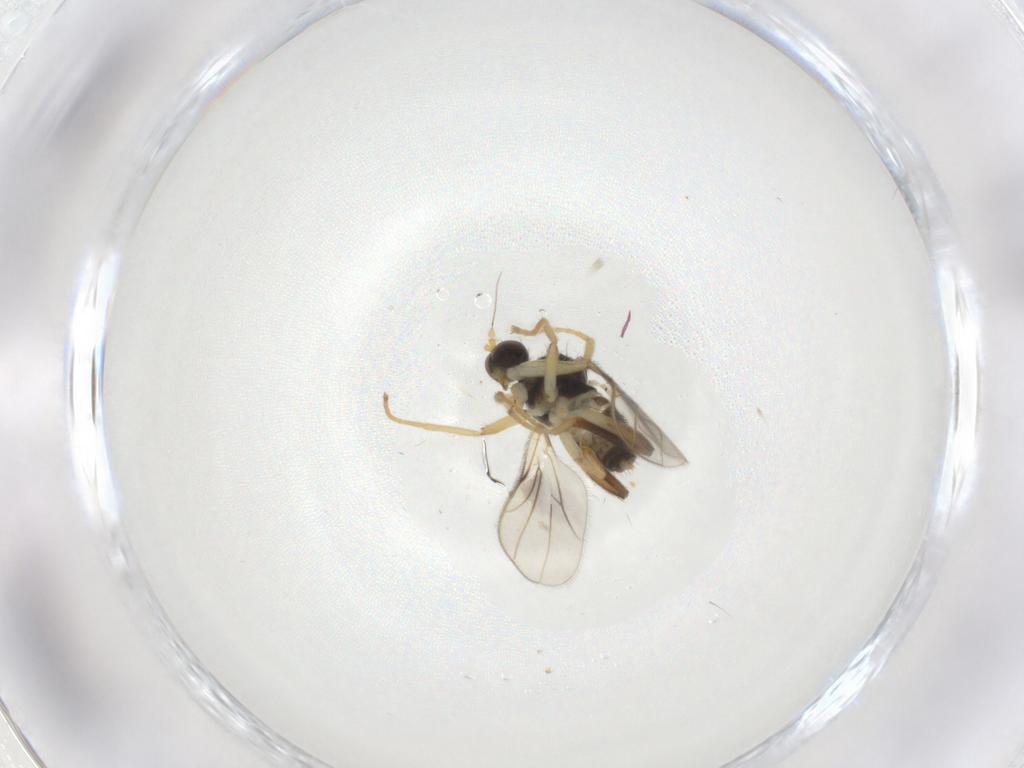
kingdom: Animalia
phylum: Arthropoda
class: Insecta
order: Diptera
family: Hybotidae
